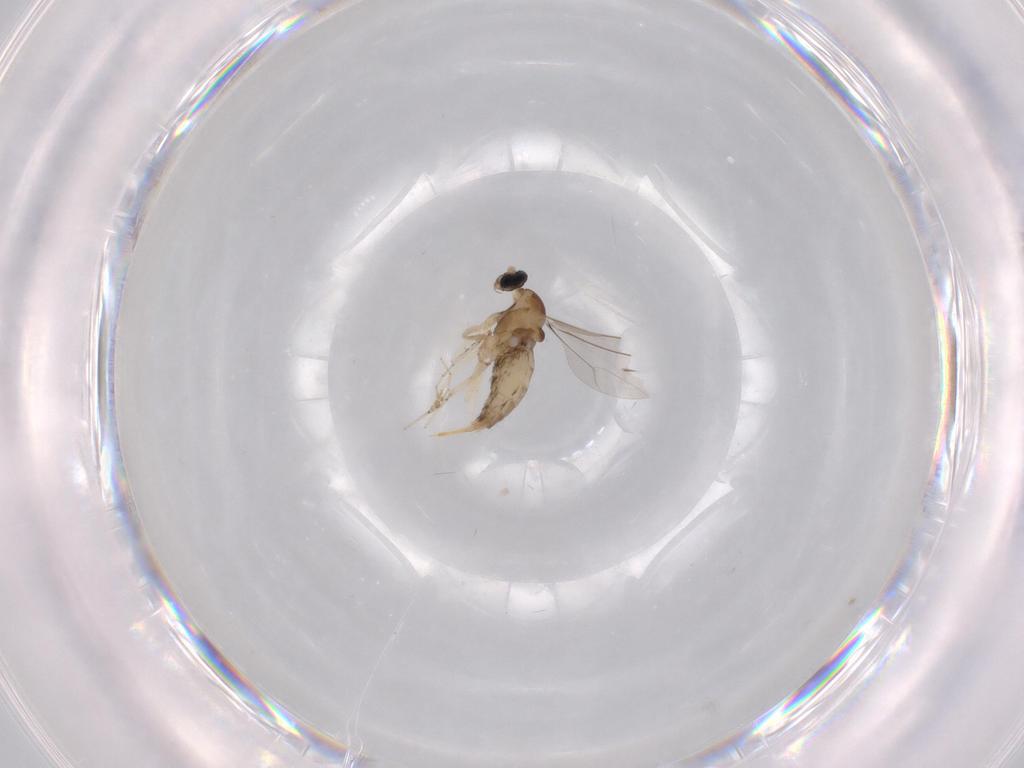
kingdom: Animalia
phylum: Arthropoda
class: Insecta
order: Diptera
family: Cecidomyiidae
